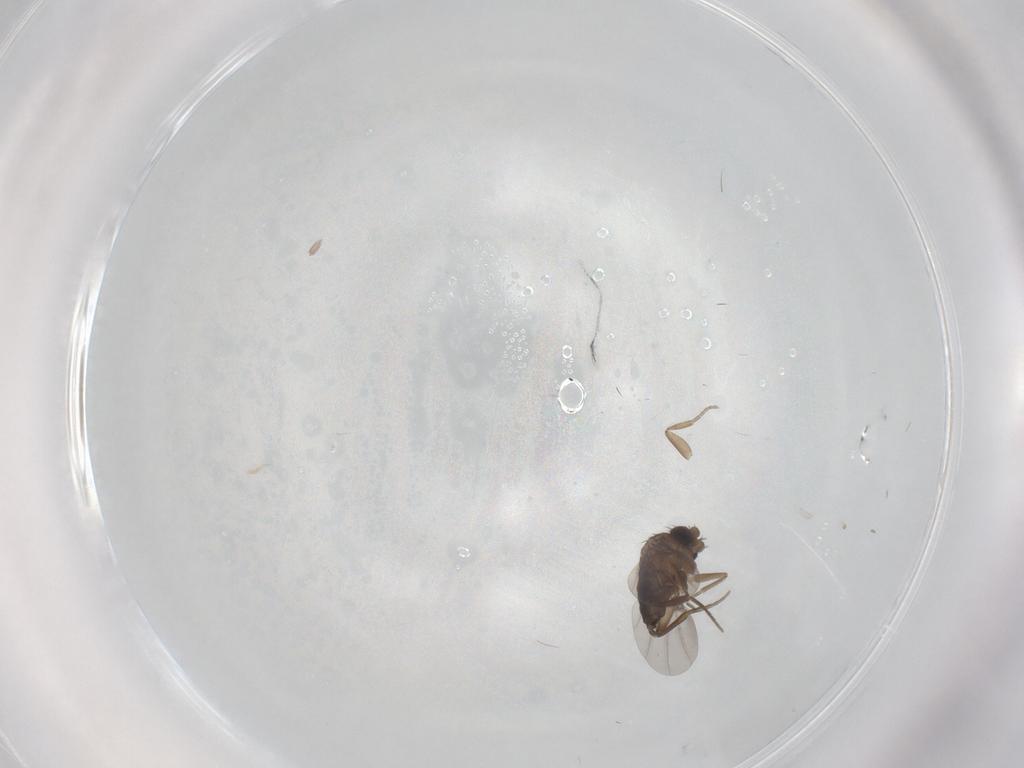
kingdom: Animalia
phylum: Arthropoda
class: Insecta
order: Diptera
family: Phoridae
